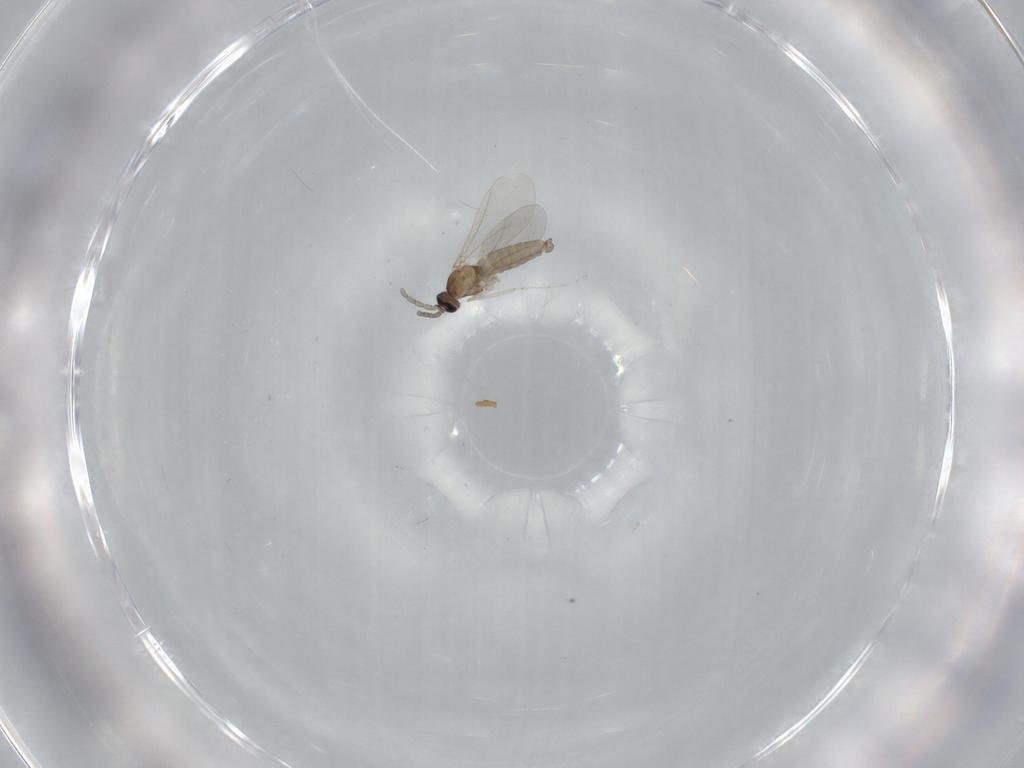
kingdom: Animalia
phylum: Arthropoda
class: Insecta
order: Diptera
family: Cecidomyiidae
